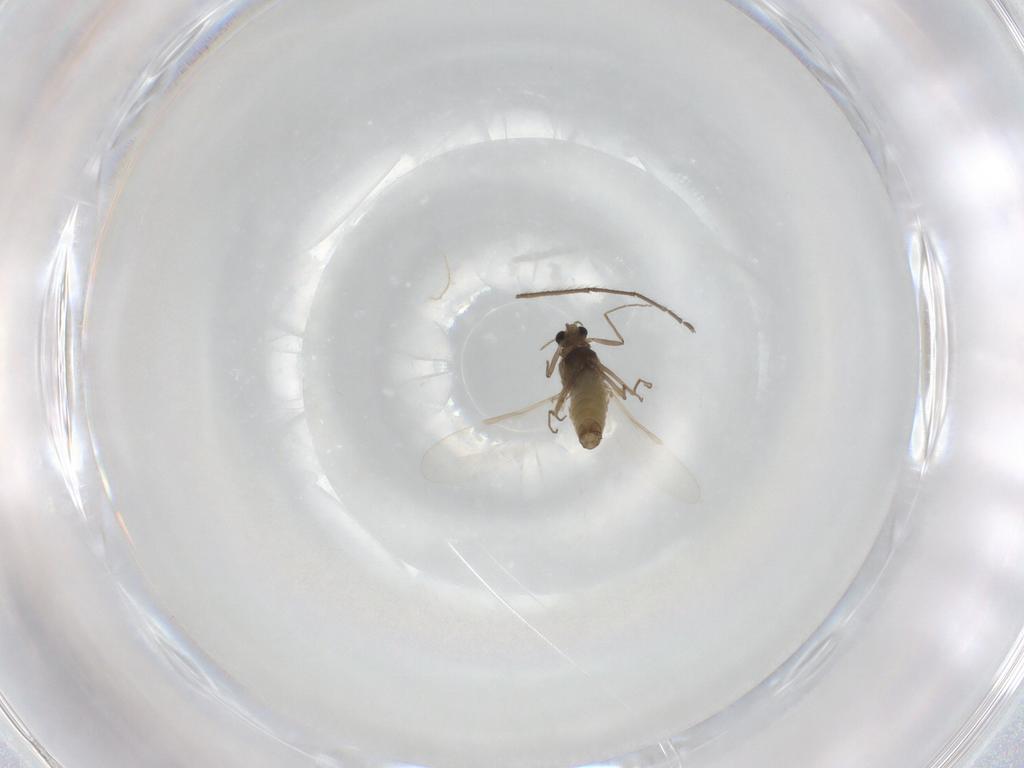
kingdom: Animalia
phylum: Arthropoda
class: Insecta
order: Diptera
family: Chironomidae
